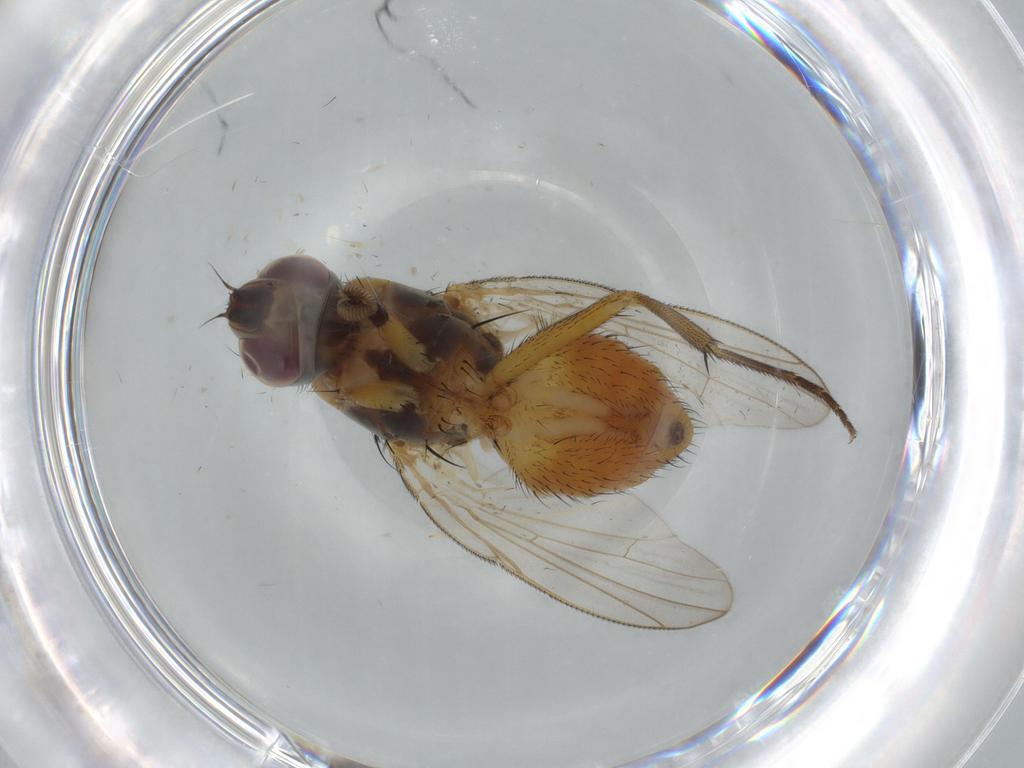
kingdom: Animalia
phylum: Arthropoda
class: Insecta
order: Diptera
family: Muscidae
